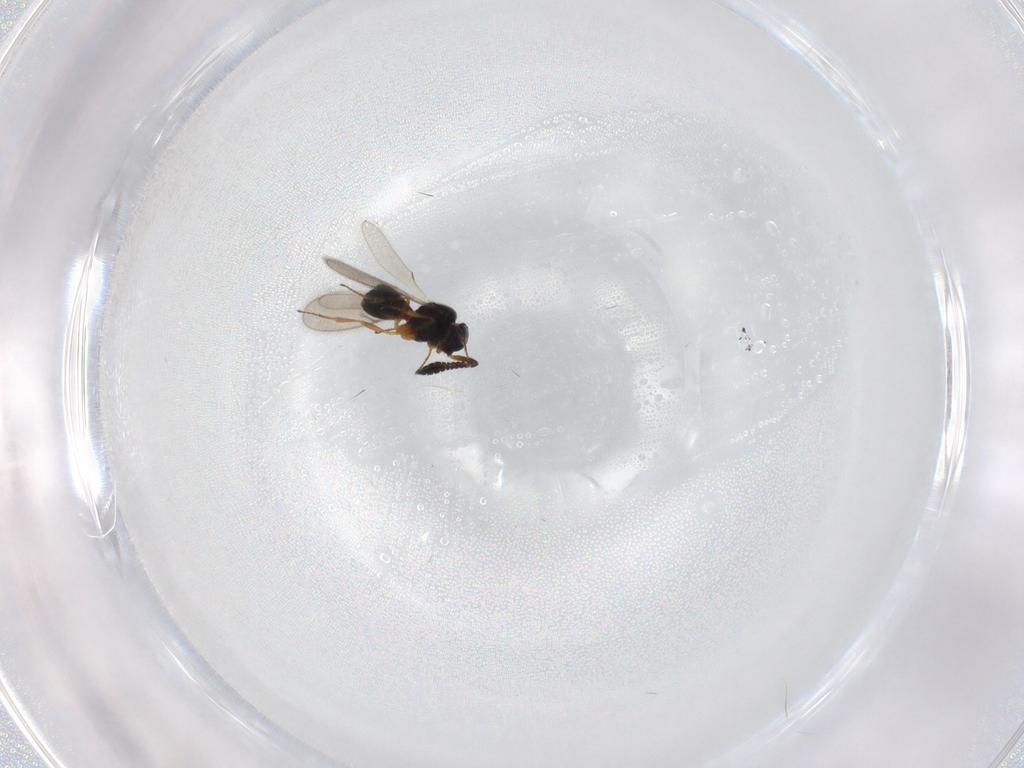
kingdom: Animalia
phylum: Arthropoda
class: Insecta
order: Hymenoptera
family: Scelionidae
